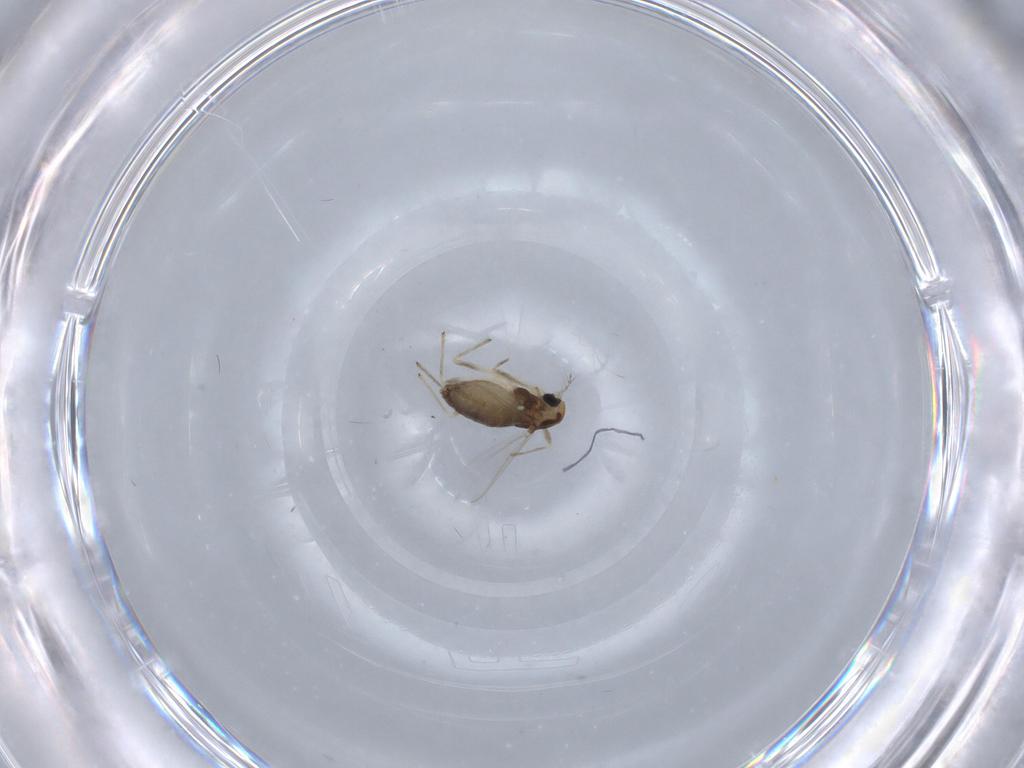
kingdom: Animalia
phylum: Arthropoda
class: Insecta
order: Diptera
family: Chironomidae
